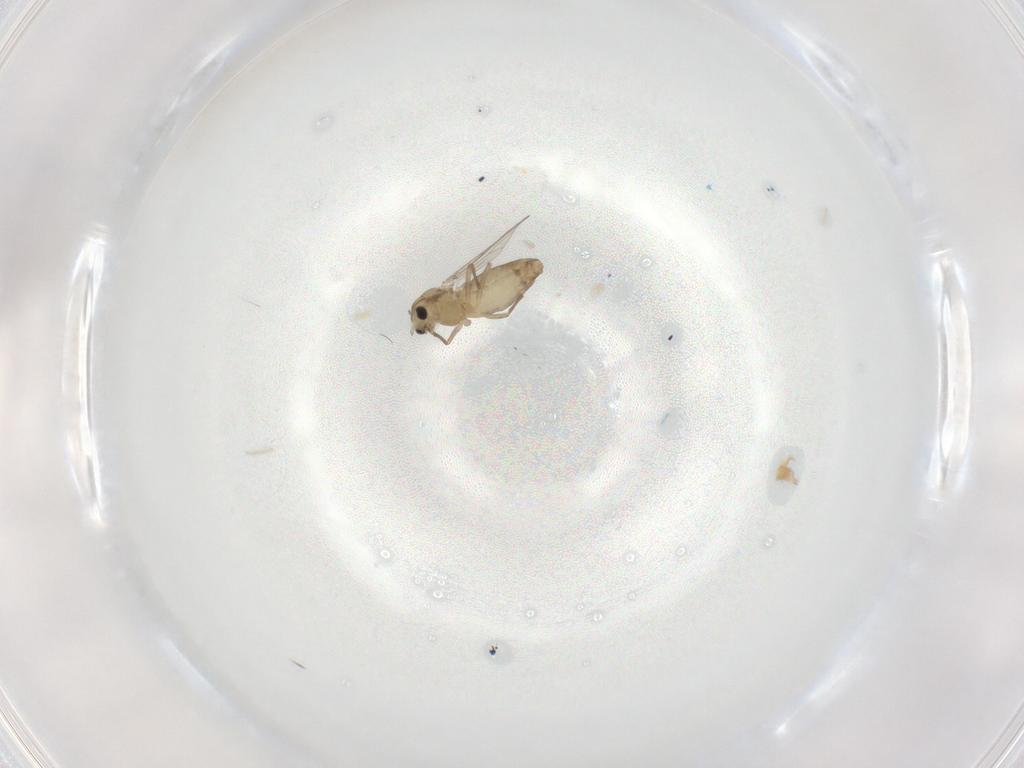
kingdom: Animalia
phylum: Arthropoda
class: Insecta
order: Diptera
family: Chironomidae
